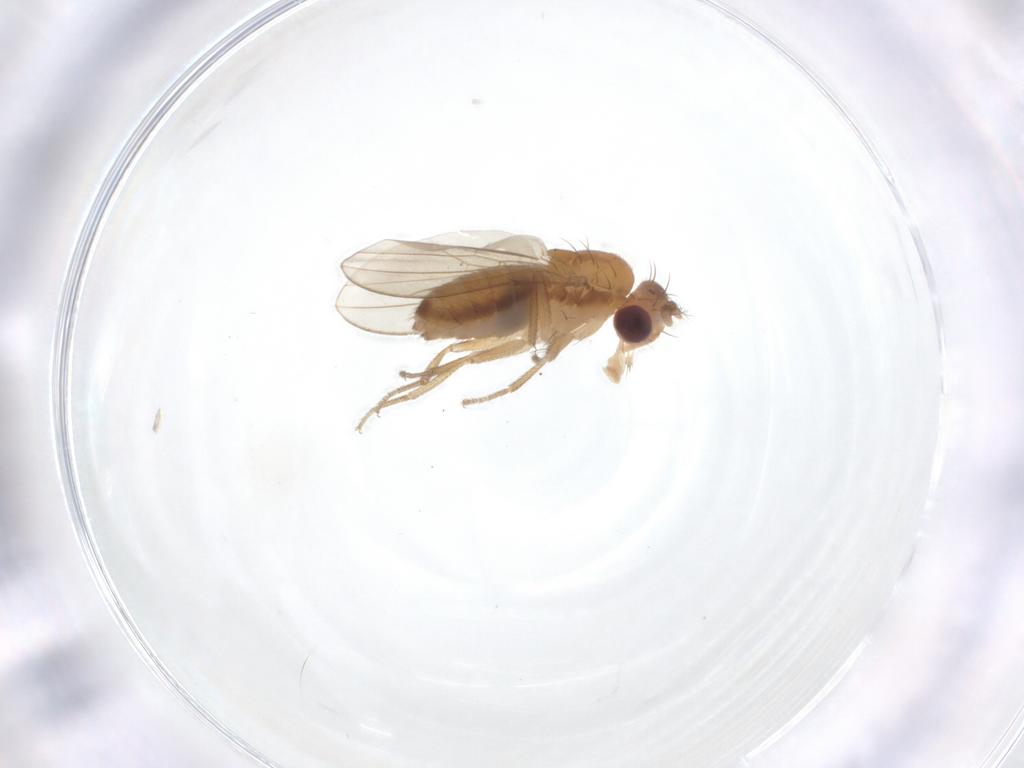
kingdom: Animalia
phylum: Arthropoda
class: Insecta
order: Diptera
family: Drosophilidae
